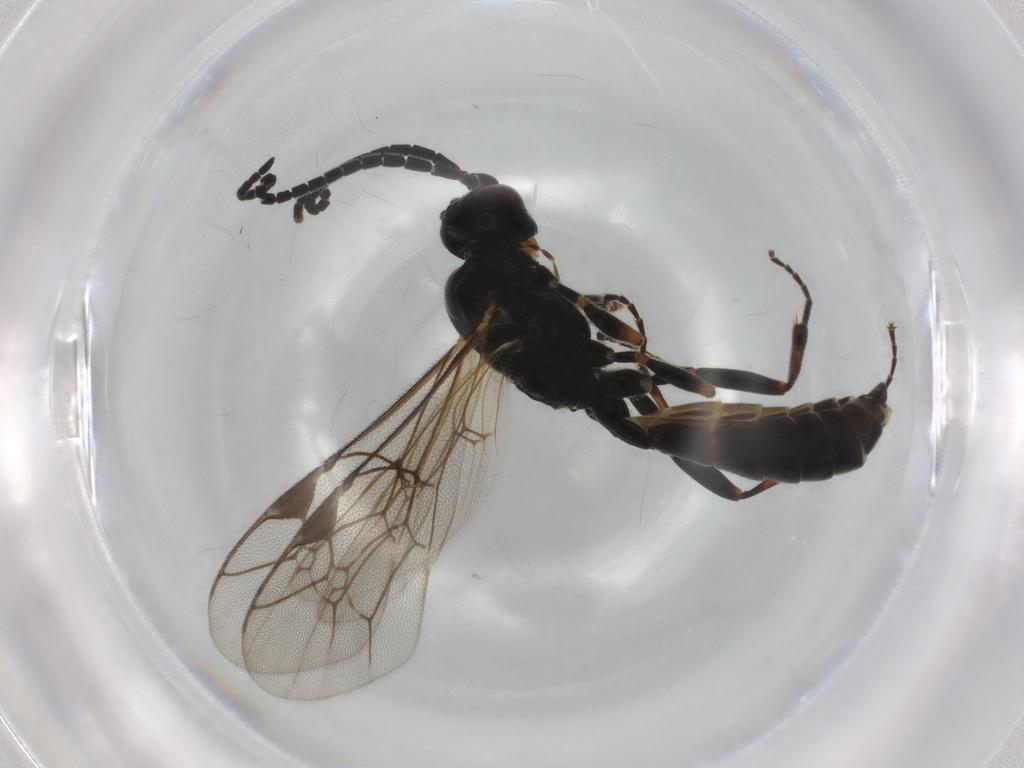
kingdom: Animalia
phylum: Arthropoda
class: Insecta
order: Hymenoptera
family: Ichneumonidae
